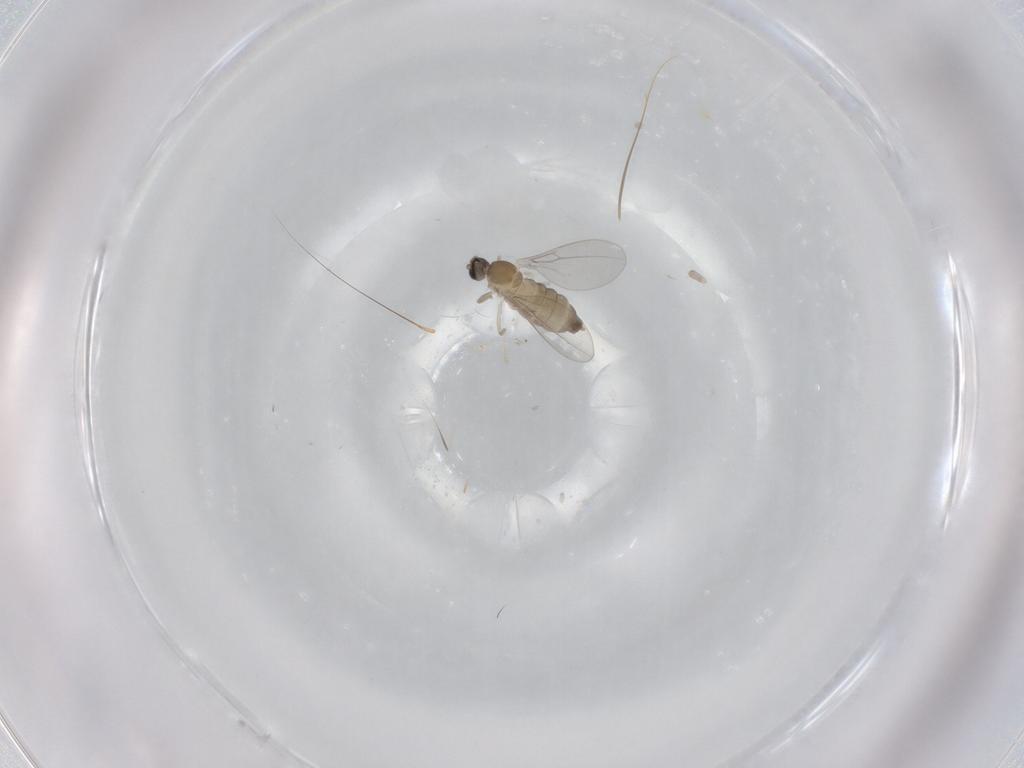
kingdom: Animalia
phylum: Arthropoda
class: Insecta
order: Diptera
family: Cecidomyiidae
